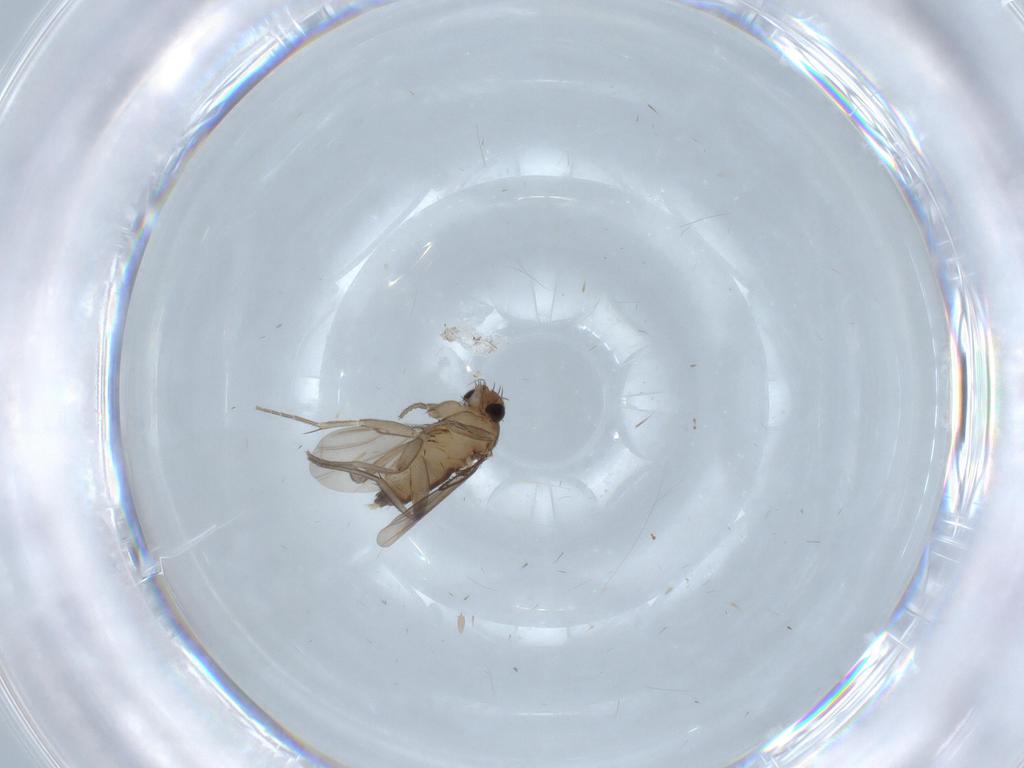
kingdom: Animalia
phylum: Arthropoda
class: Insecta
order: Diptera
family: Phoridae
